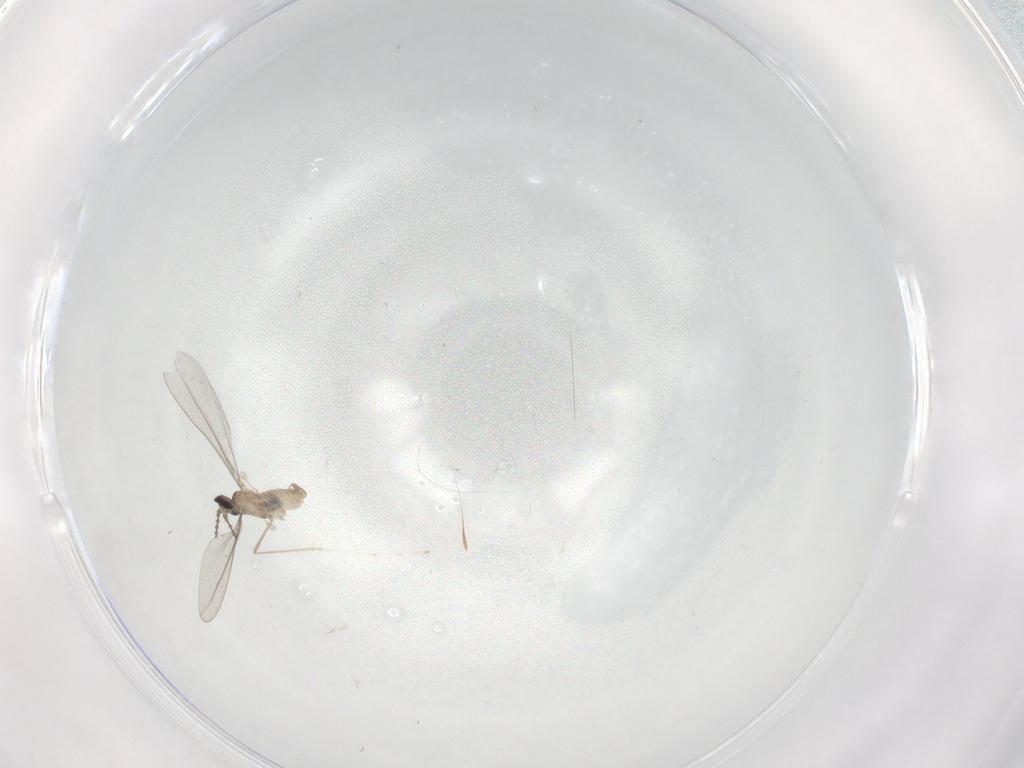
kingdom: Animalia
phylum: Arthropoda
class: Insecta
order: Diptera
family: Cecidomyiidae
